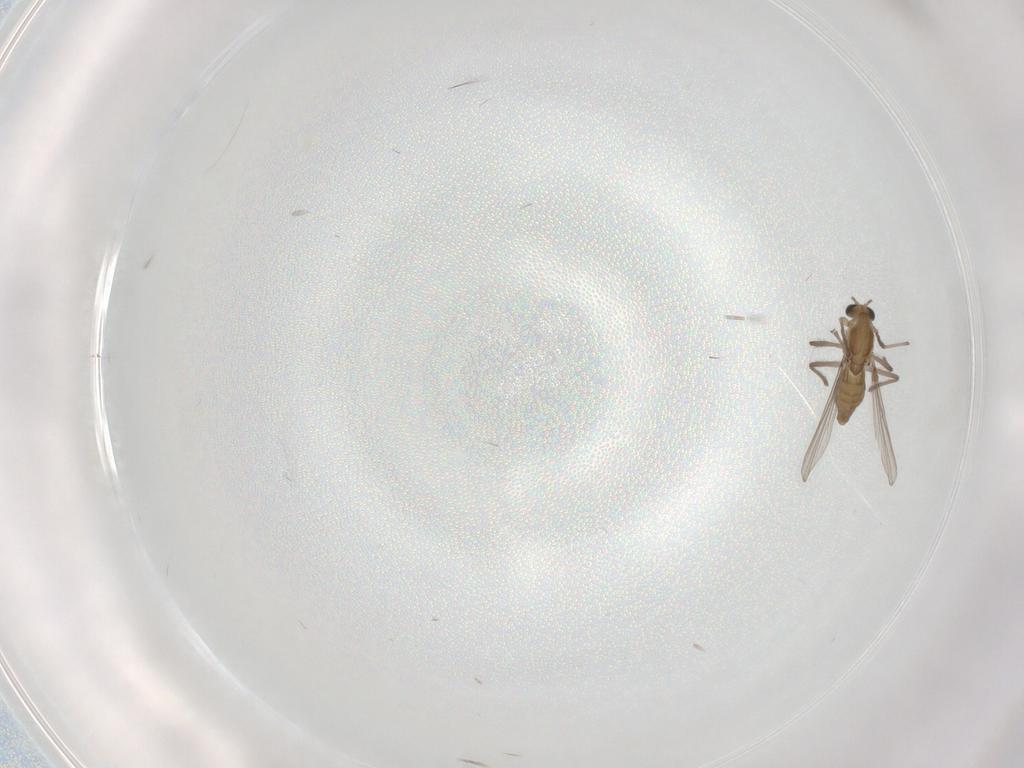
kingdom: Animalia
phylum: Arthropoda
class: Insecta
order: Diptera
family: Chironomidae
